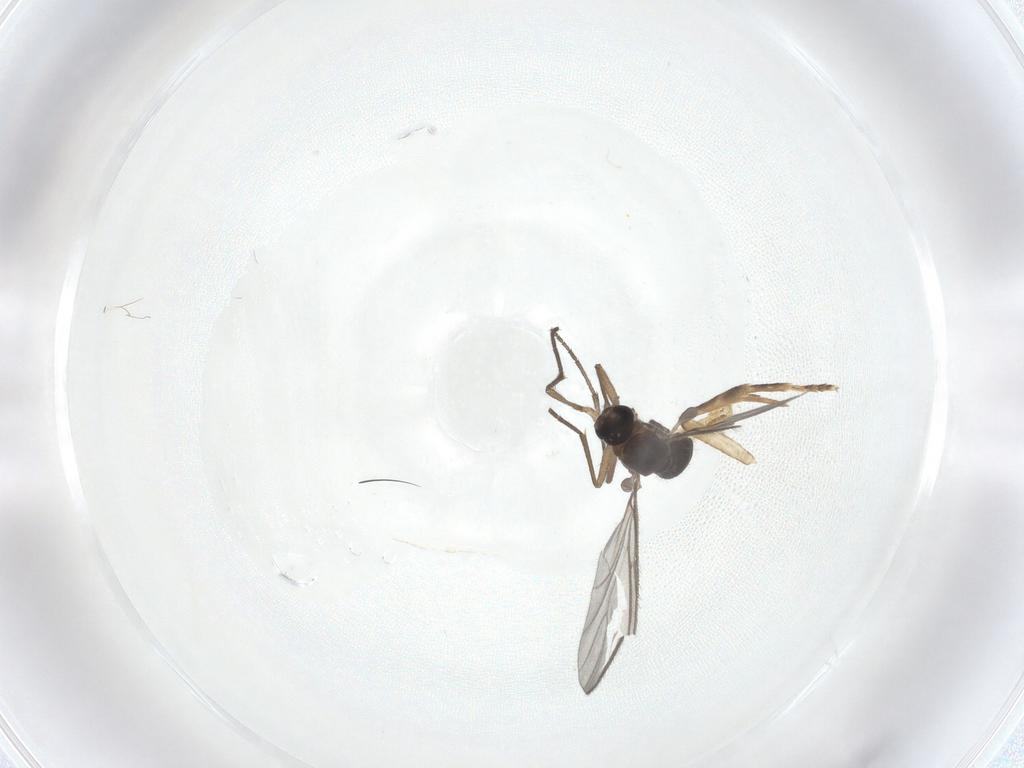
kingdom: Animalia
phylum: Arthropoda
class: Insecta
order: Diptera
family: Sciaridae
